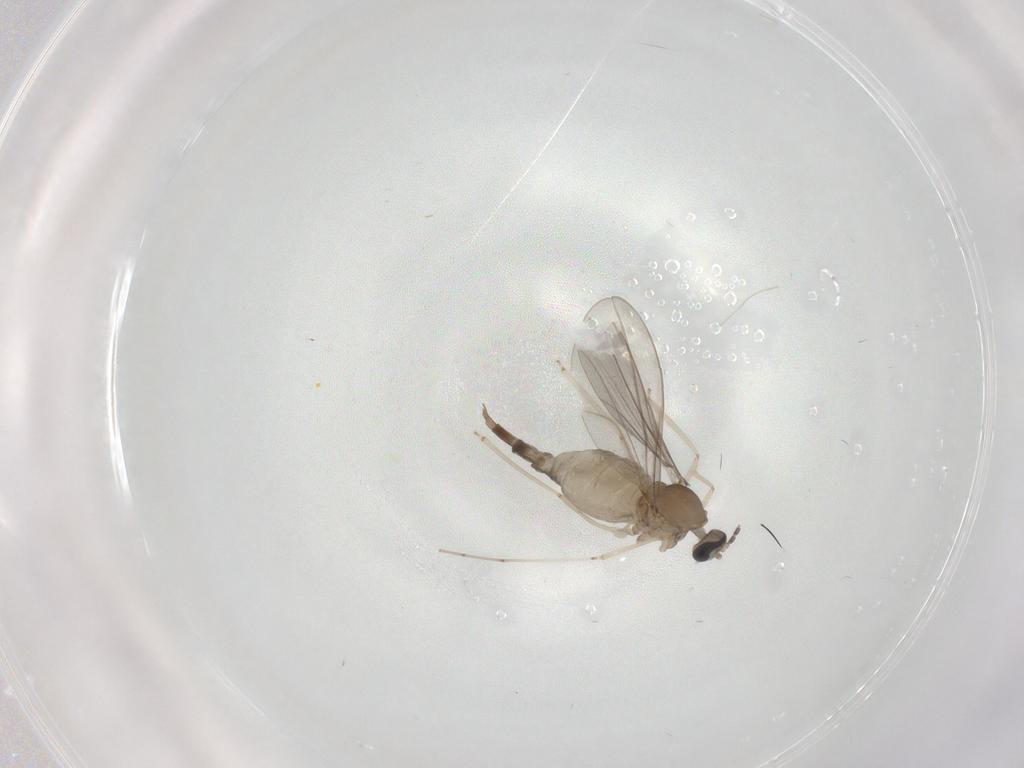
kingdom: Animalia
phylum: Arthropoda
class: Insecta
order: Diptera
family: Cecidomyiidae
